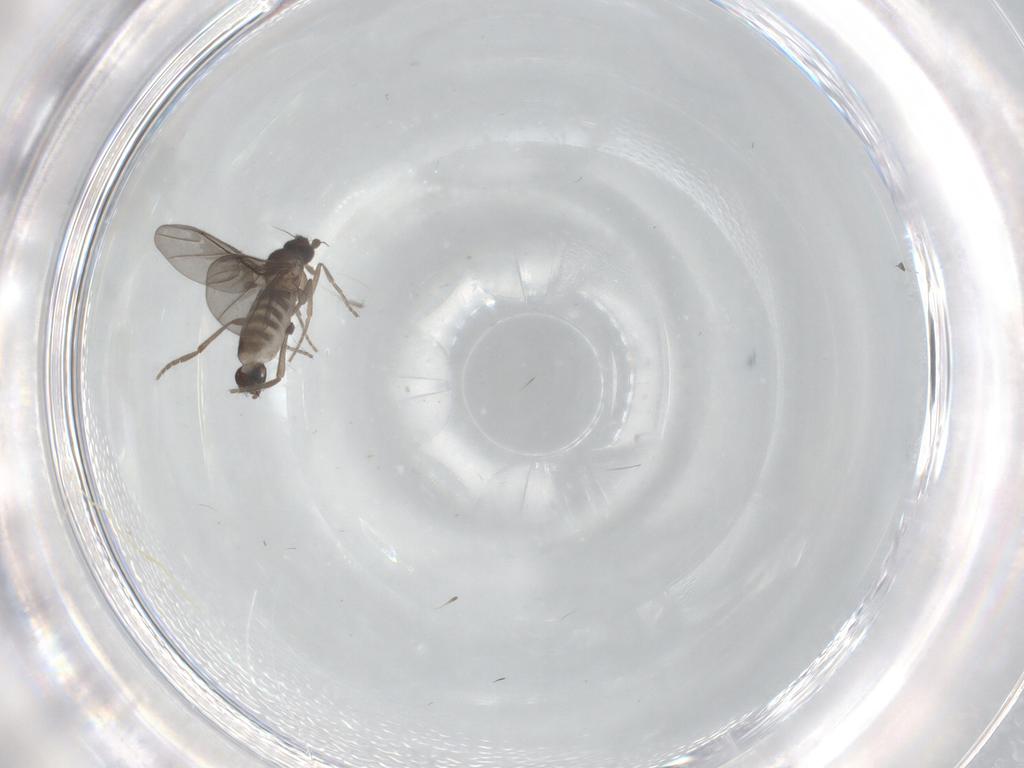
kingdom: Animalia
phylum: Arthropoda
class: Insecta
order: Diptera
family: Phoridae
